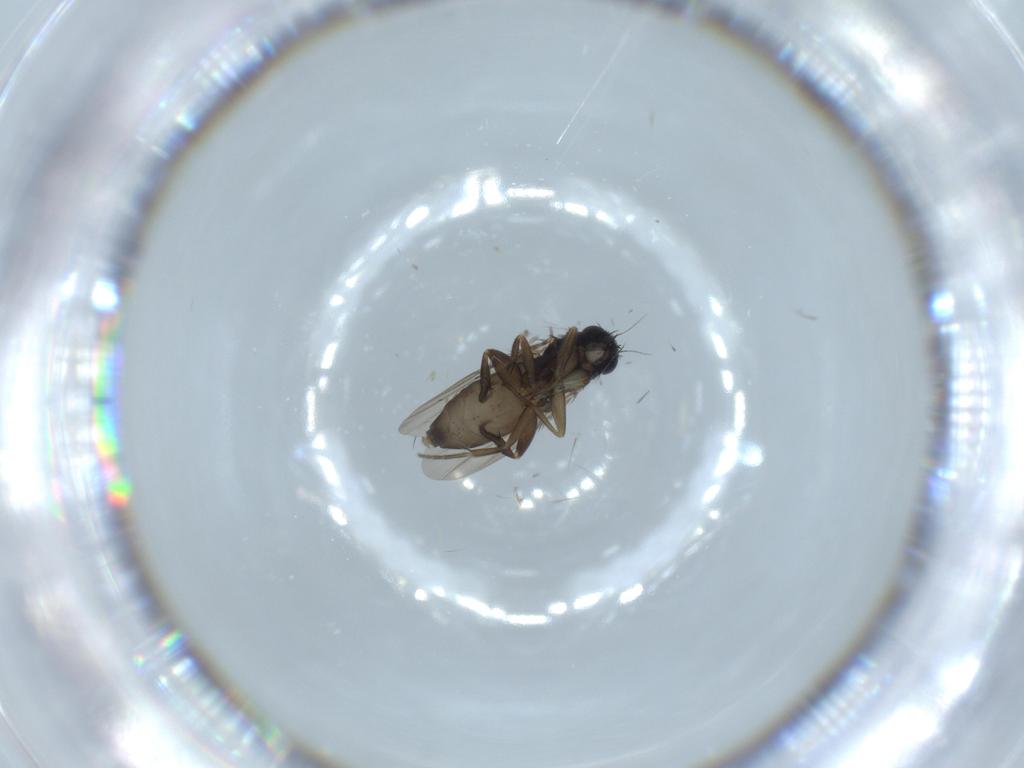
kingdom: Animalia
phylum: Arthropoda
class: Insecta
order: Diptera
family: Phoridae
